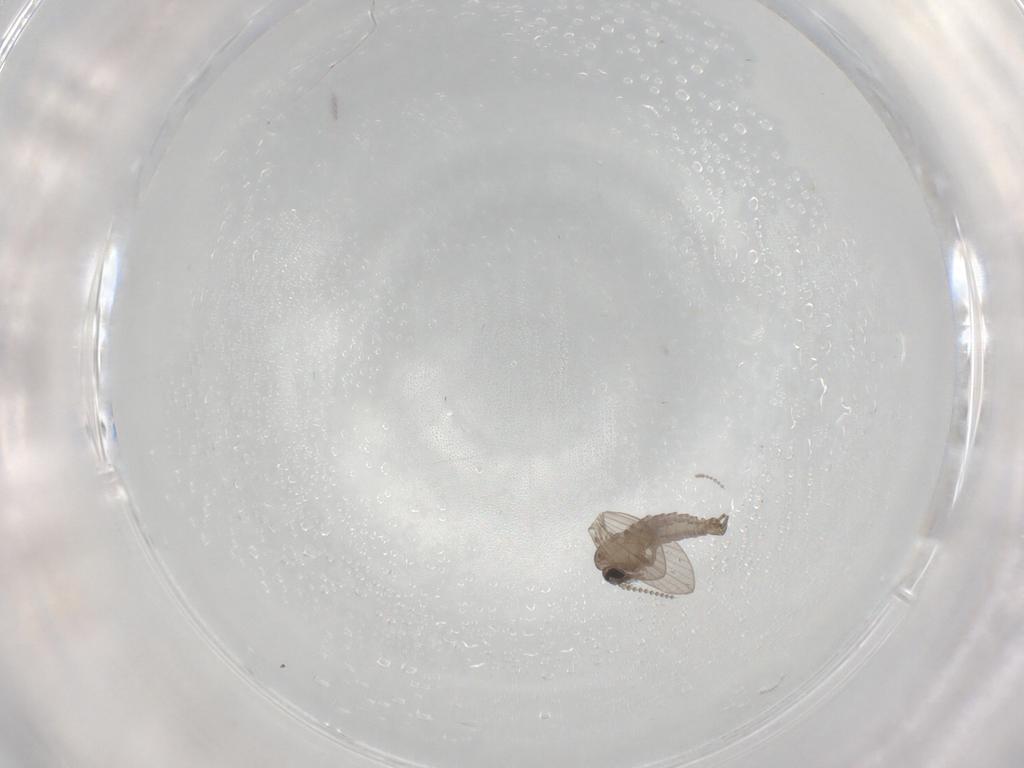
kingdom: Animalia
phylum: Arthropoda
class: Insecta
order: Diptera
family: Psychodidae
